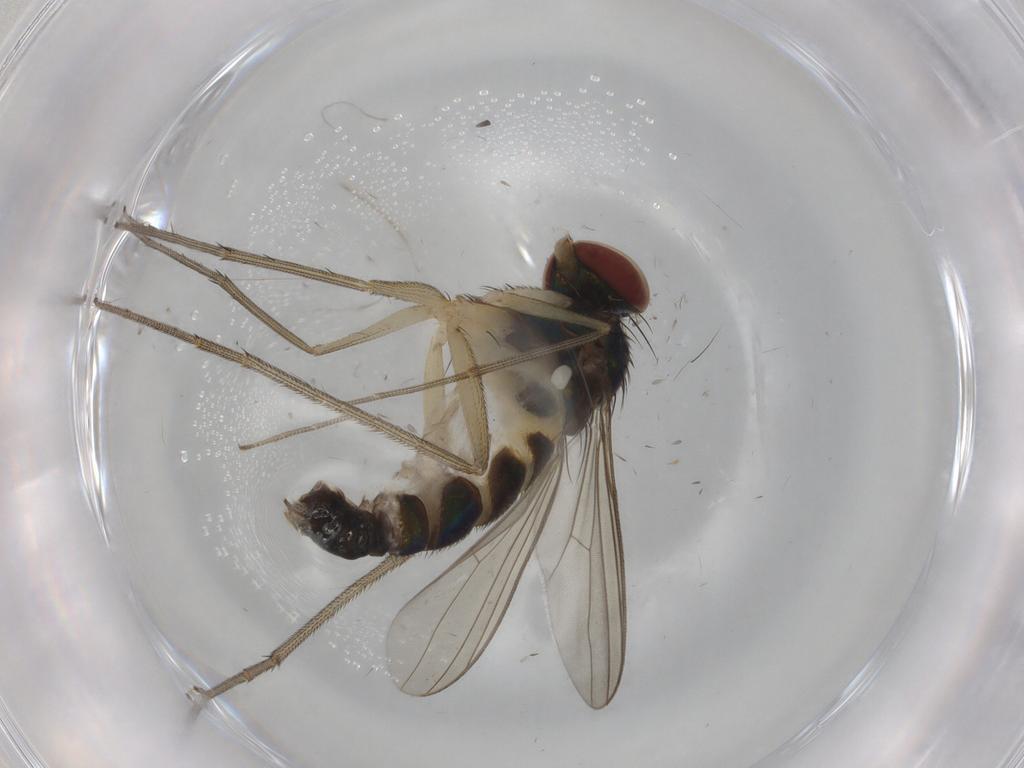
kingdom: Animalia
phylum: Arthropoda
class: Insecta
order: Diptera
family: Dolichopodidae
